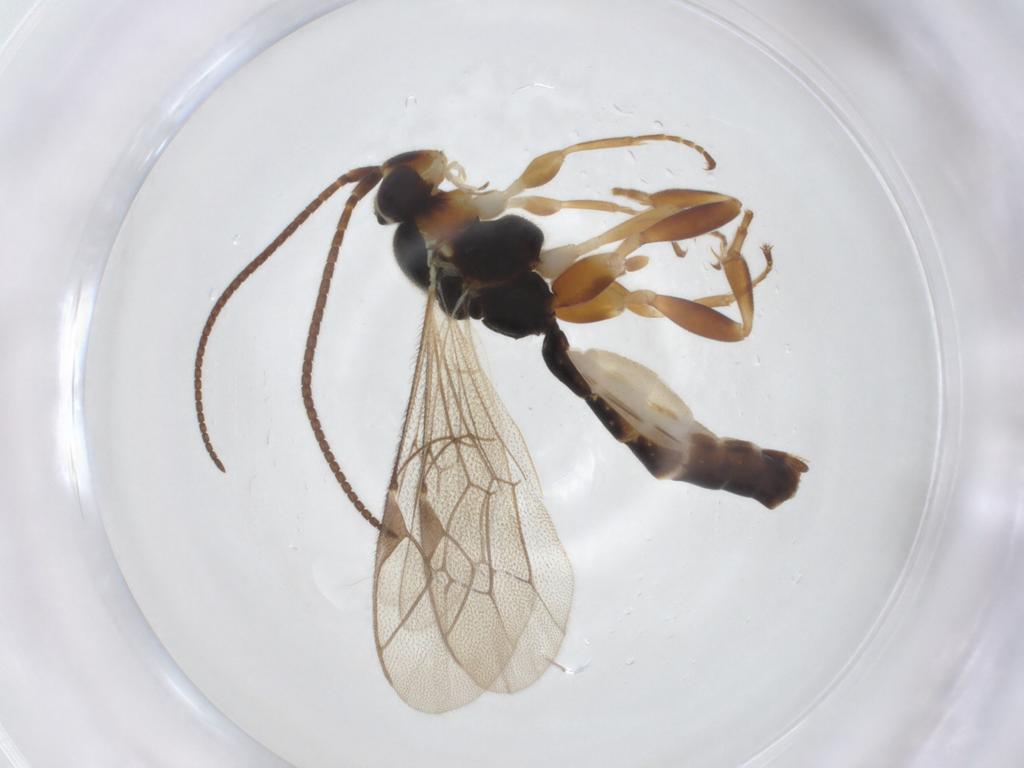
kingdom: Animalia
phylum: Arthropoda
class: Insecta
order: Hymenoptera
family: Ichneumonidae
